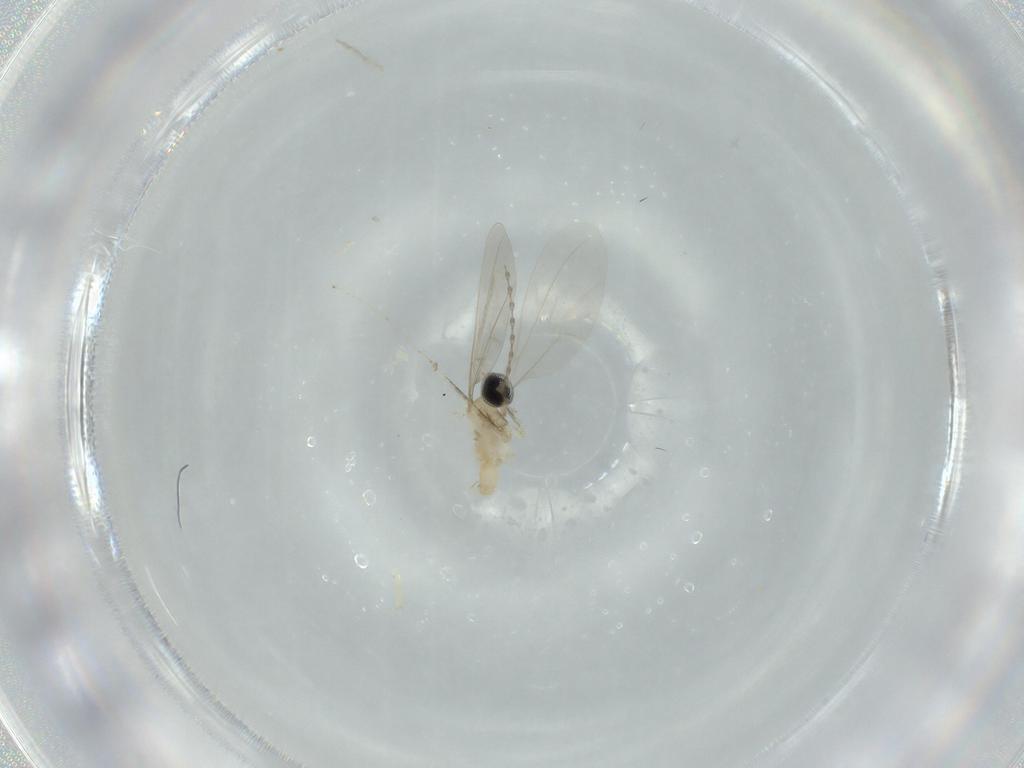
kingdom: Animalia
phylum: Arthropoda
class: Insecta
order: Diptera
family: Cecidomyiidae
